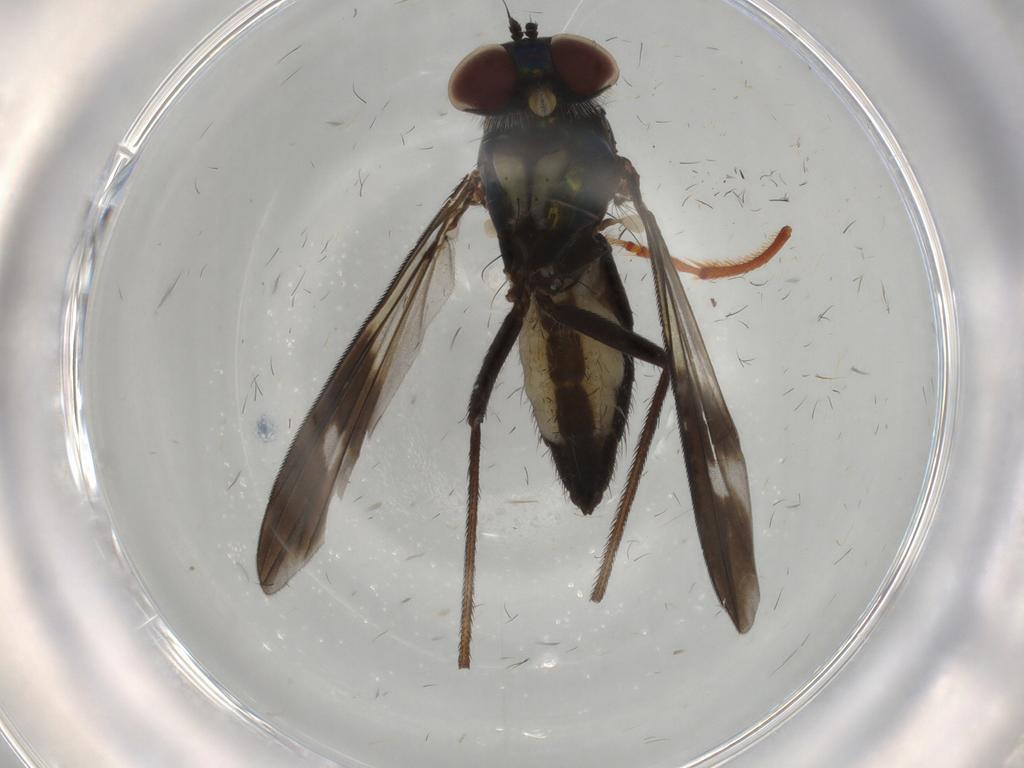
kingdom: Animalia
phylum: Arthropoda
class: Insecta
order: Diptera
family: Dolichopodidae
